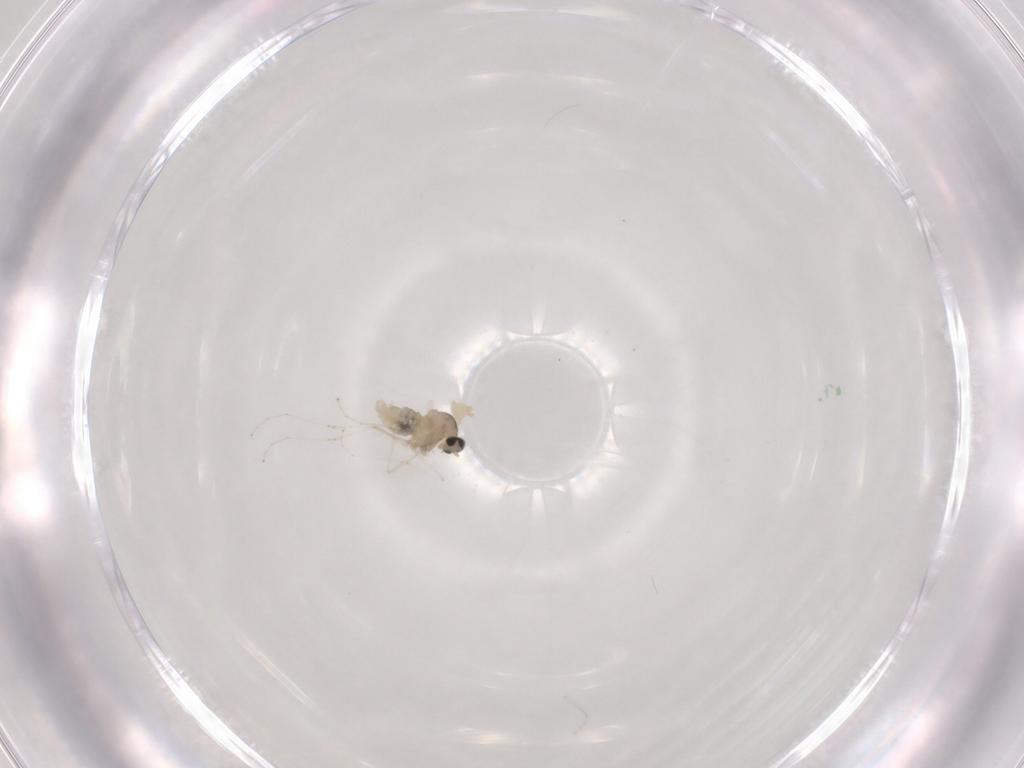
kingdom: Animalia
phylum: Arthropoda
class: Insecta
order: Diptera
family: Cecidomyiidae
